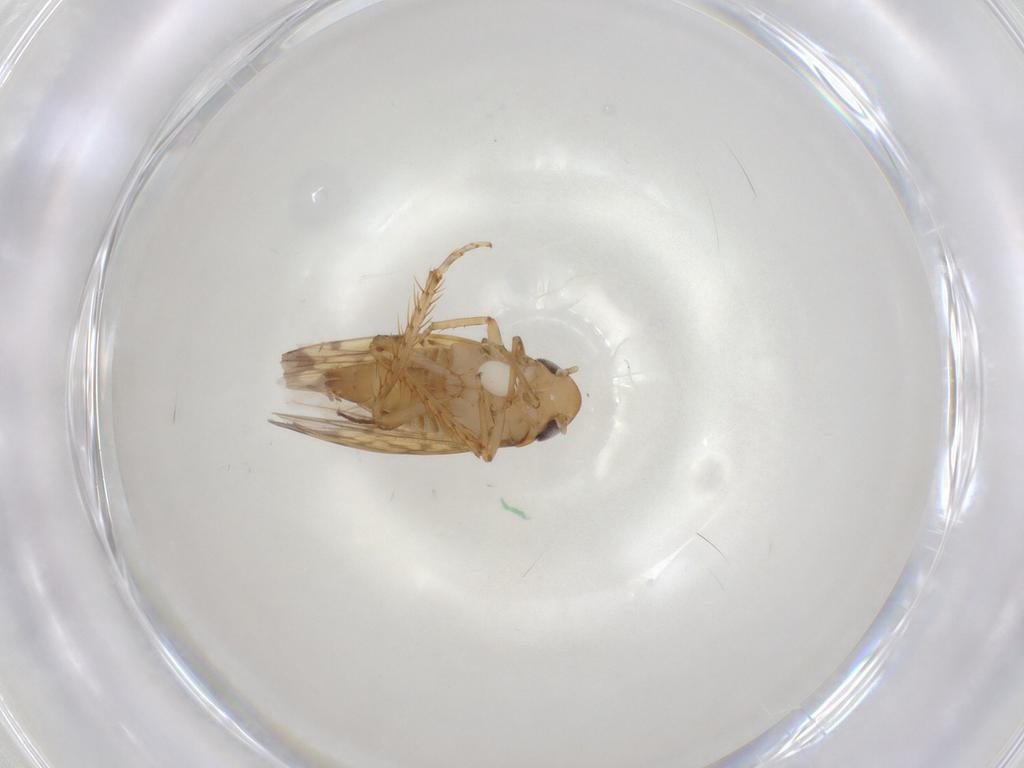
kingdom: Animalia
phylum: Arthropoda
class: Insecta
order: Hemiptera
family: Cicadellidae
